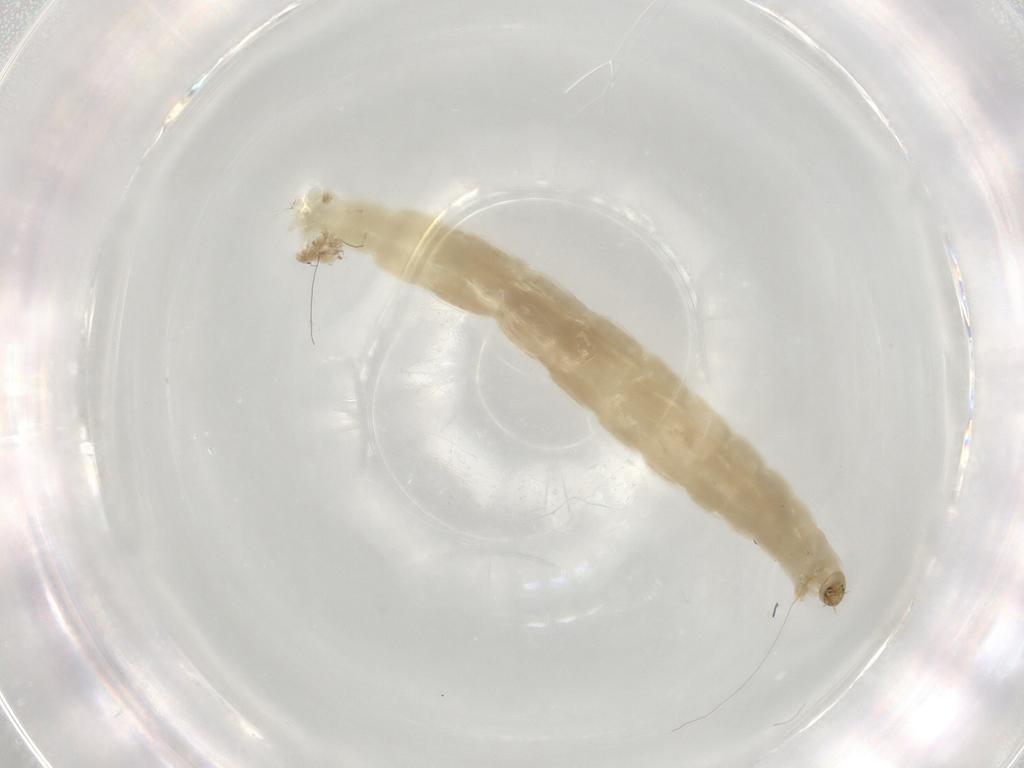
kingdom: Animalia
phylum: Arthropoda
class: Insecta
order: Diptera
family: Chironomidae
